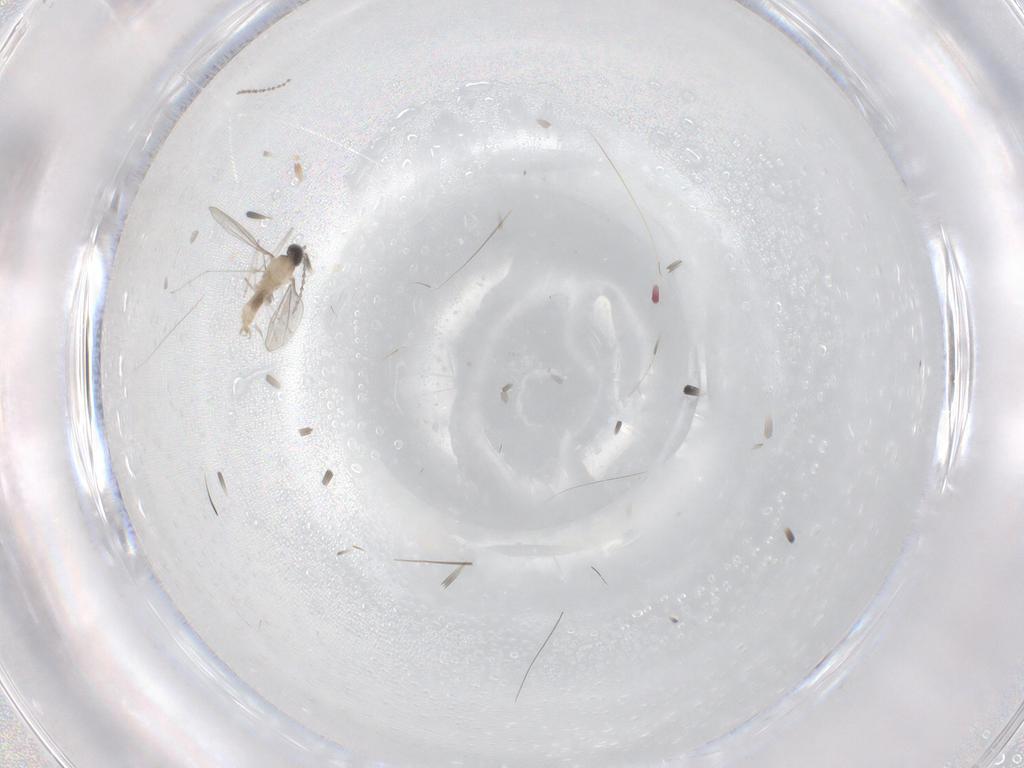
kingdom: Animalia
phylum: Arthropoda
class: Insecta
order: Diptera
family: Cecidomyiidae
